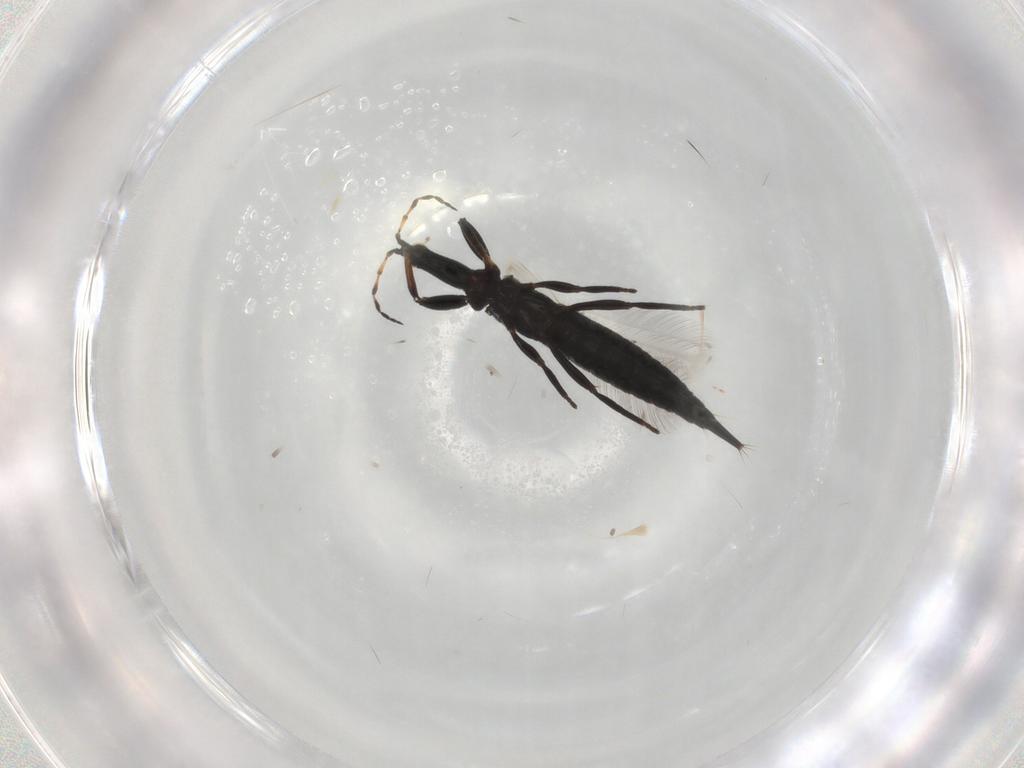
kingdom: Animalia
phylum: Arthropoda
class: Insecta
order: Thysanoptera
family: Phlaeothripidae
